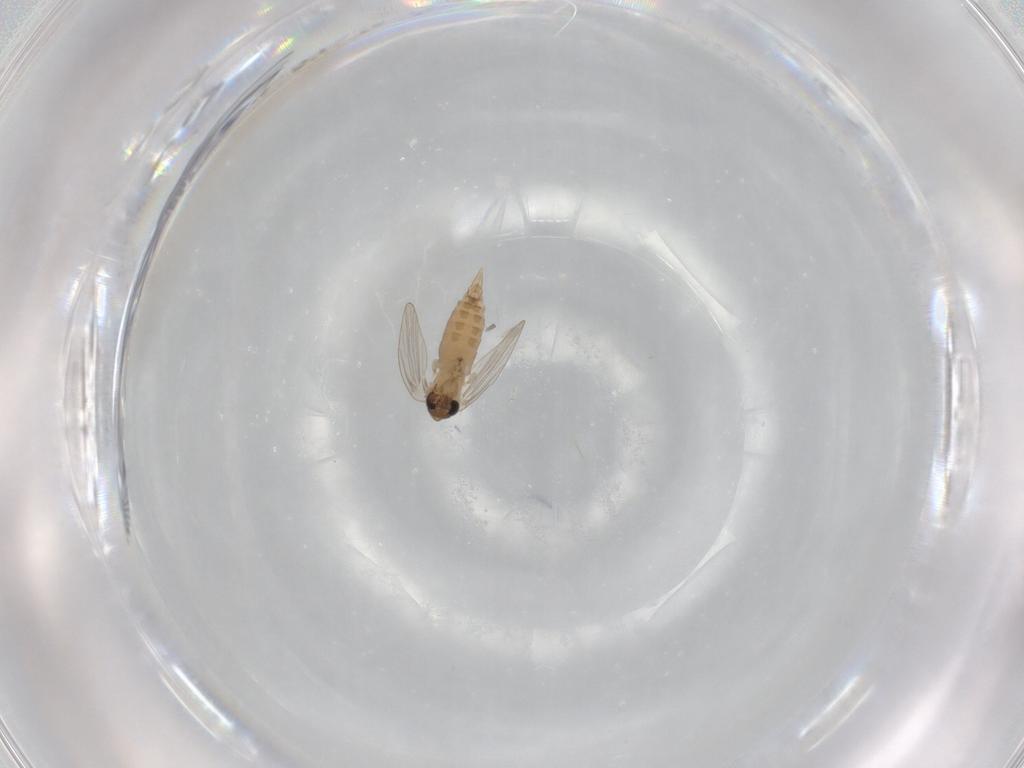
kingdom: Animalia
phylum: Arthropoda
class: Insecta
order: Diptera
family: Psychodidae
